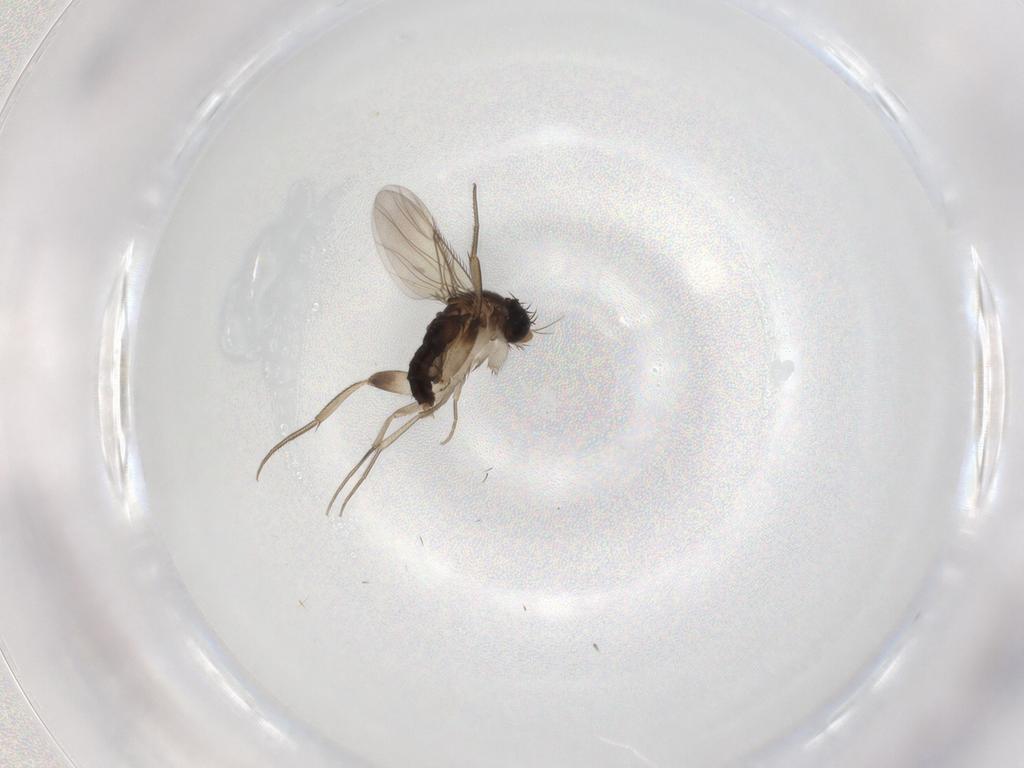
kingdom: Animalia
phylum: Arthropoda
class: Insecta
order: Diptera
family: Phoridae
